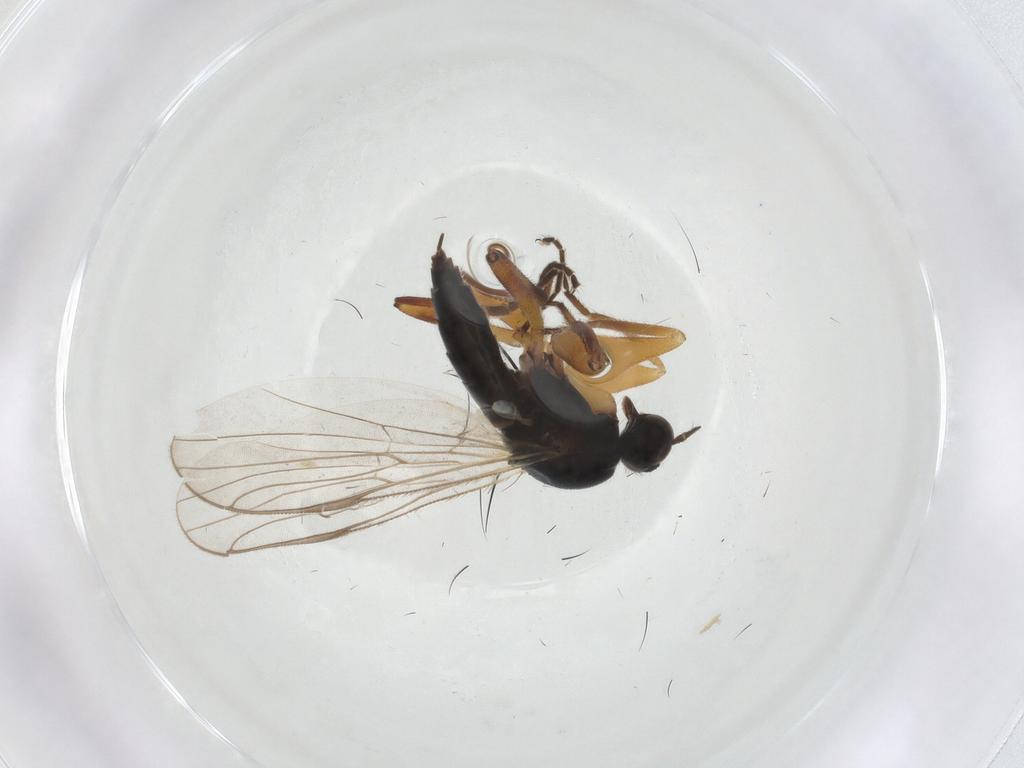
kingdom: Animalia
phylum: Arthropoda
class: Insecta
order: Diptera
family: Hybotidae
